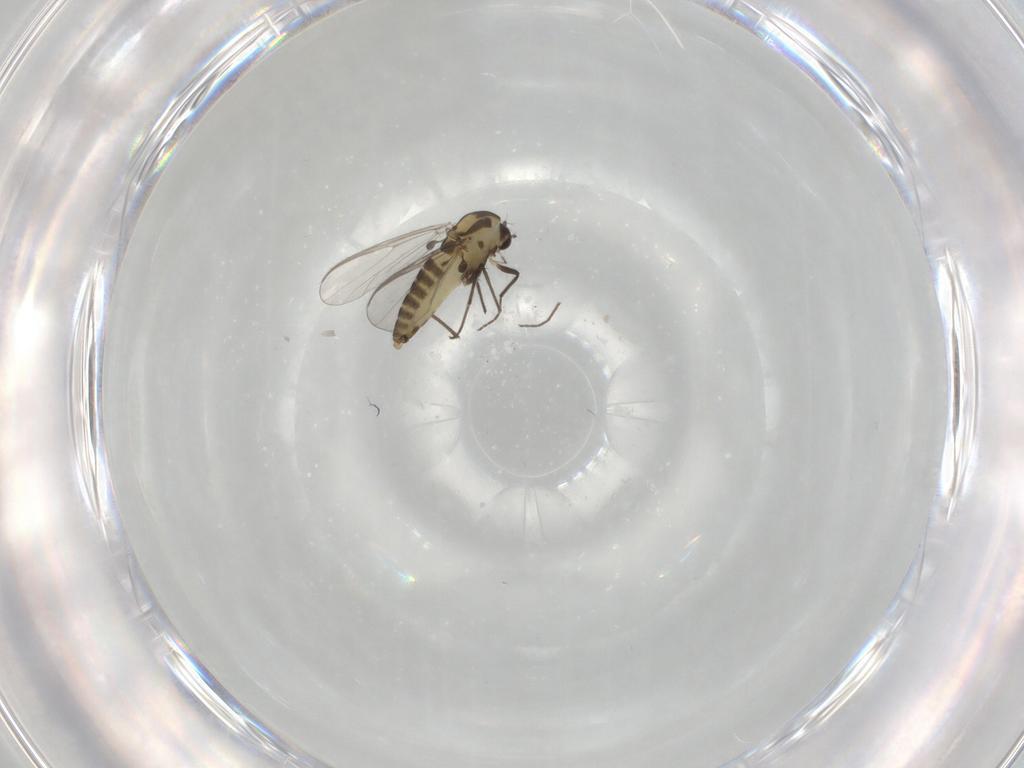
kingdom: Animalia
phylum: Arthropoda
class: Insecta
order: Diptera
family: Chironomidae
